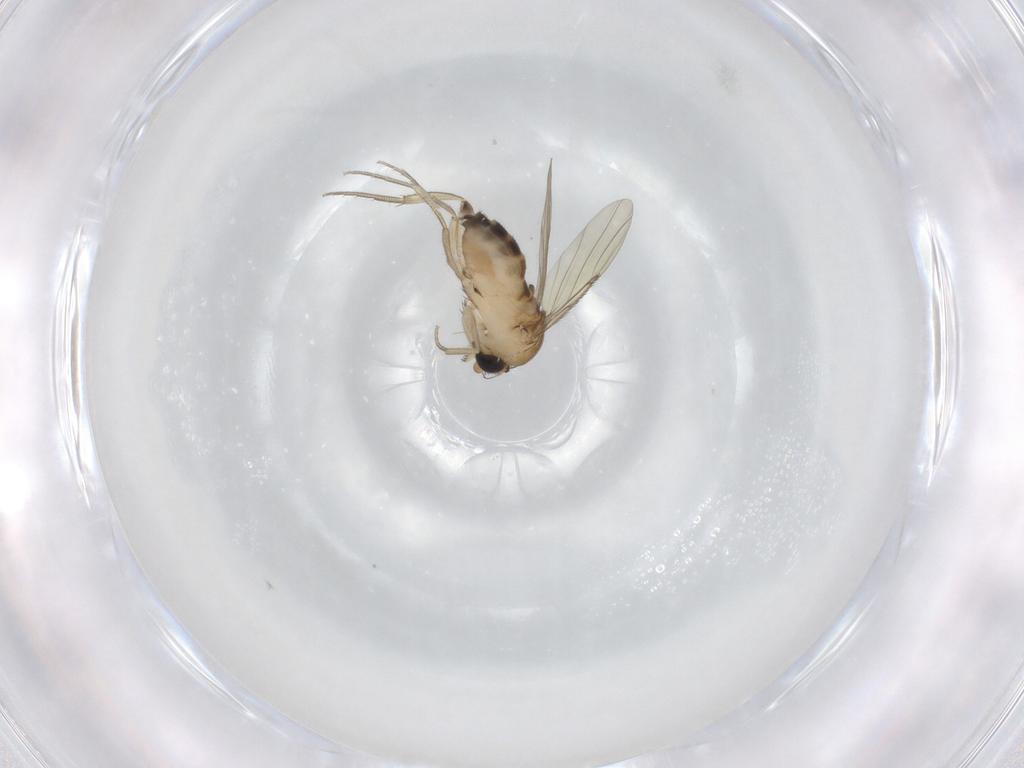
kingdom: Animalia
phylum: Arthropoda
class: Insecta
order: Diptera
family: Phoridae
